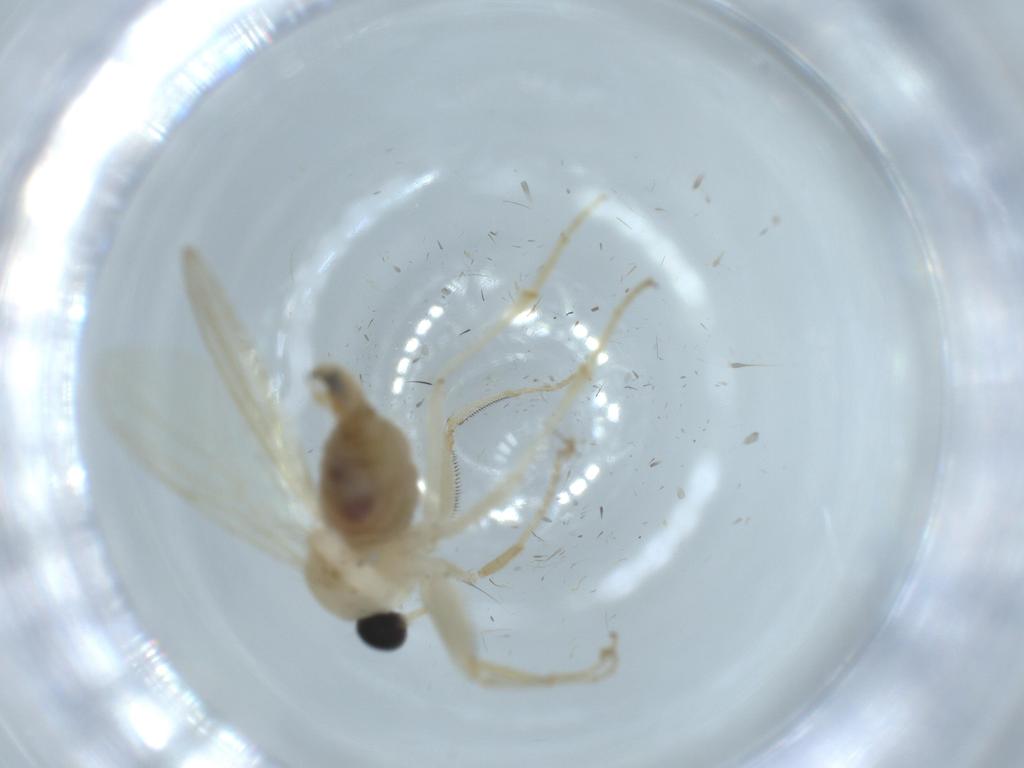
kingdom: Animalia
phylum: Arthropoda
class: Insecta
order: Diptera
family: Hybotidae
